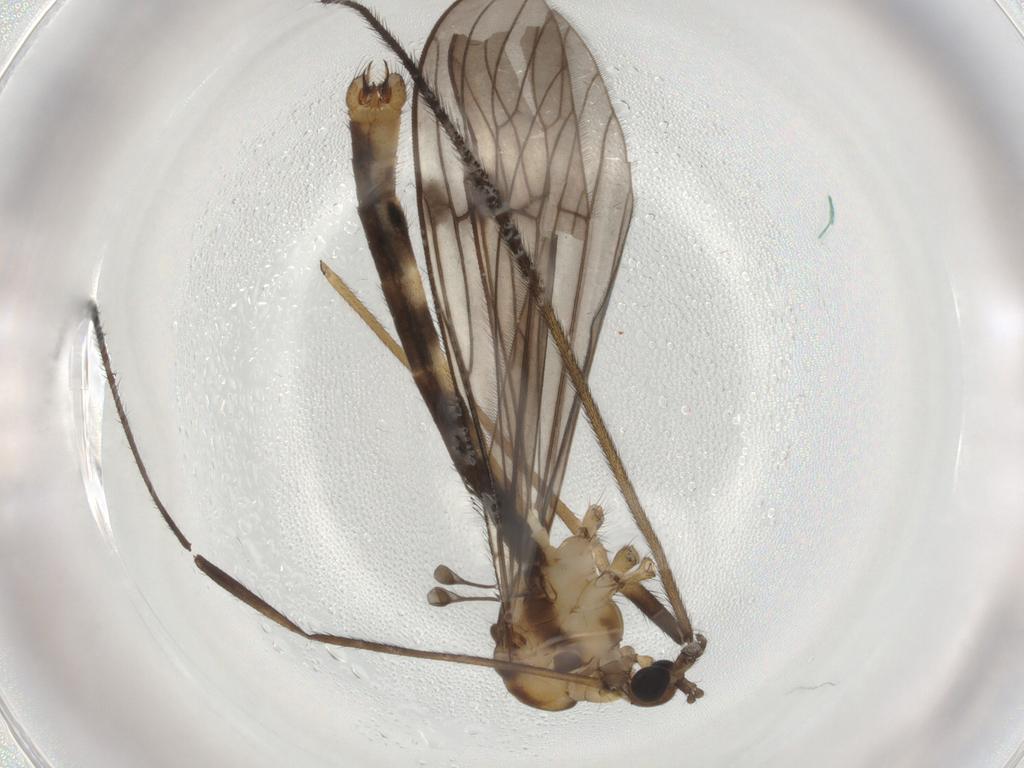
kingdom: Animalia
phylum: Arthropoda
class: Insecta
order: Diptera
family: Limoniidae
